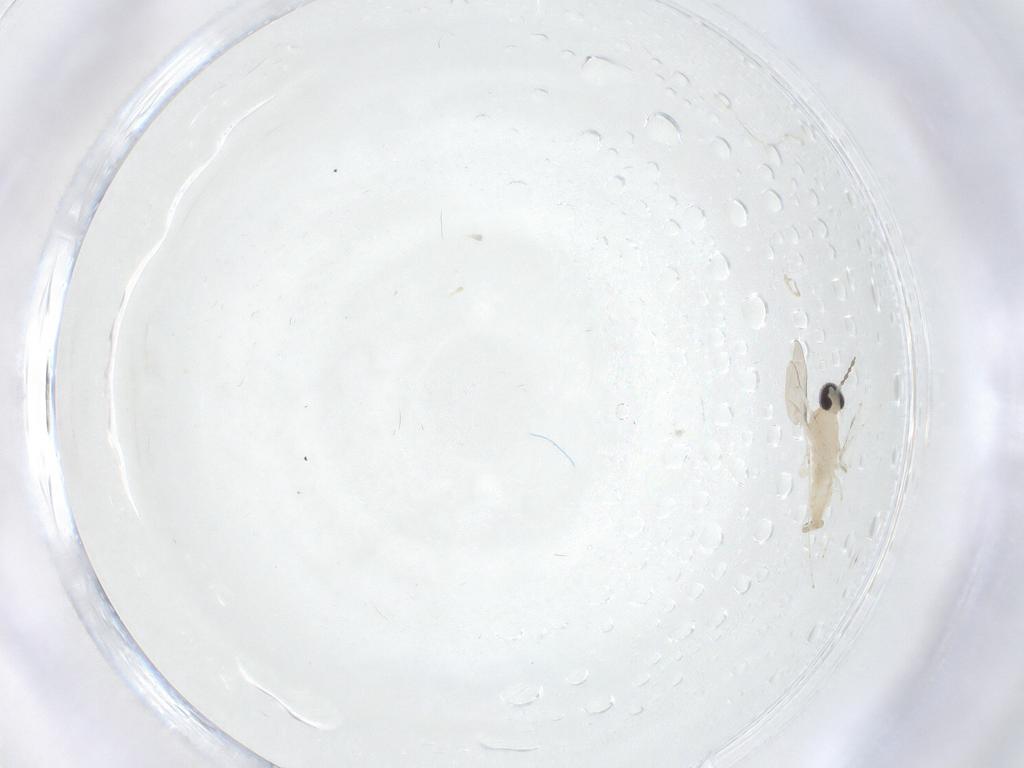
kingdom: Animalia
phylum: Arthropoda
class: Insecta
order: Diptera
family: Cecidomyiidae
